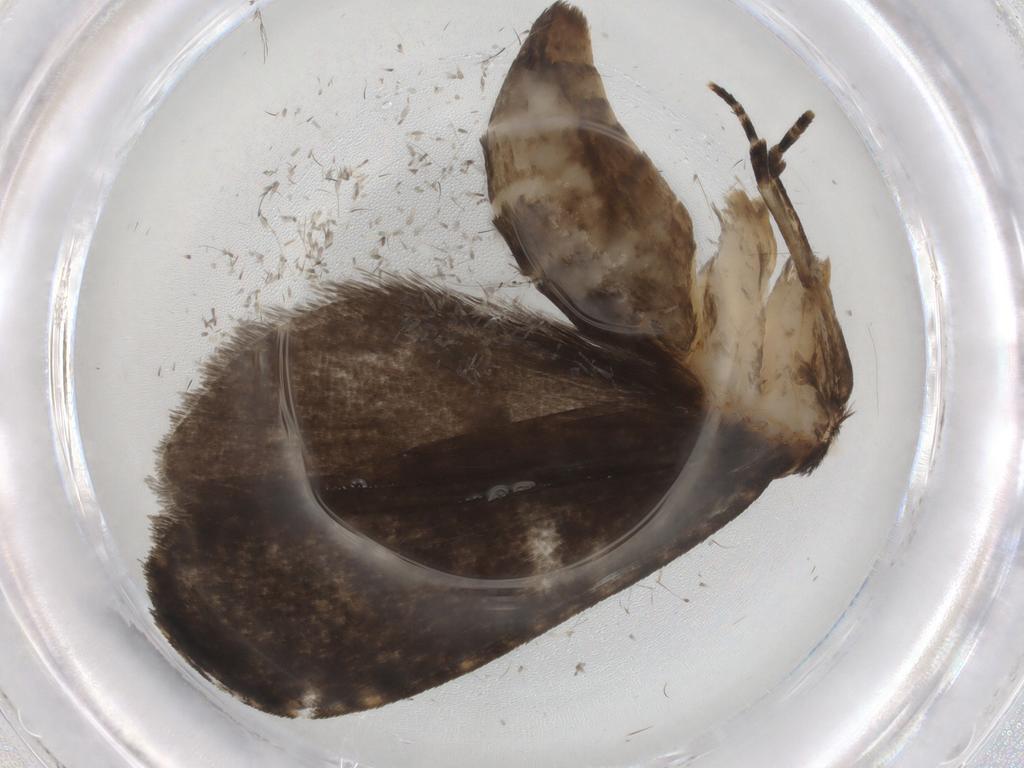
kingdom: Animalia
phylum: Arthropoda
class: Insecta
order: Lepidoptera
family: Tineidae
